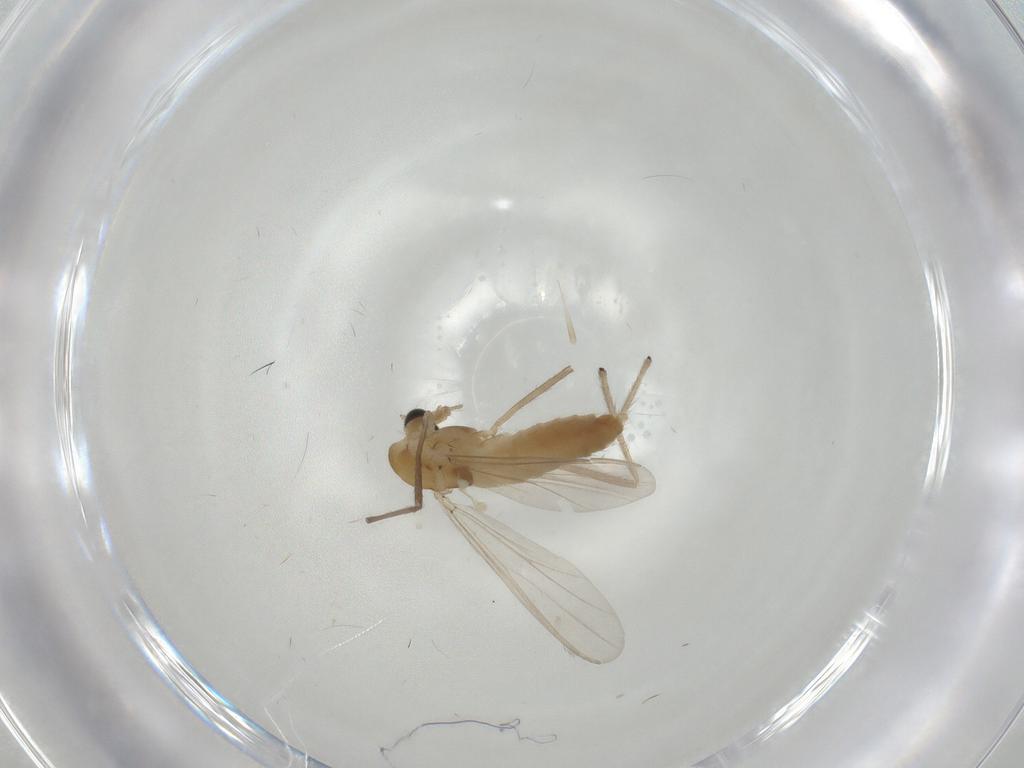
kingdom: Animalia
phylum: Arthropoda
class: Insecta
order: Diptera
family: Chironomidae
